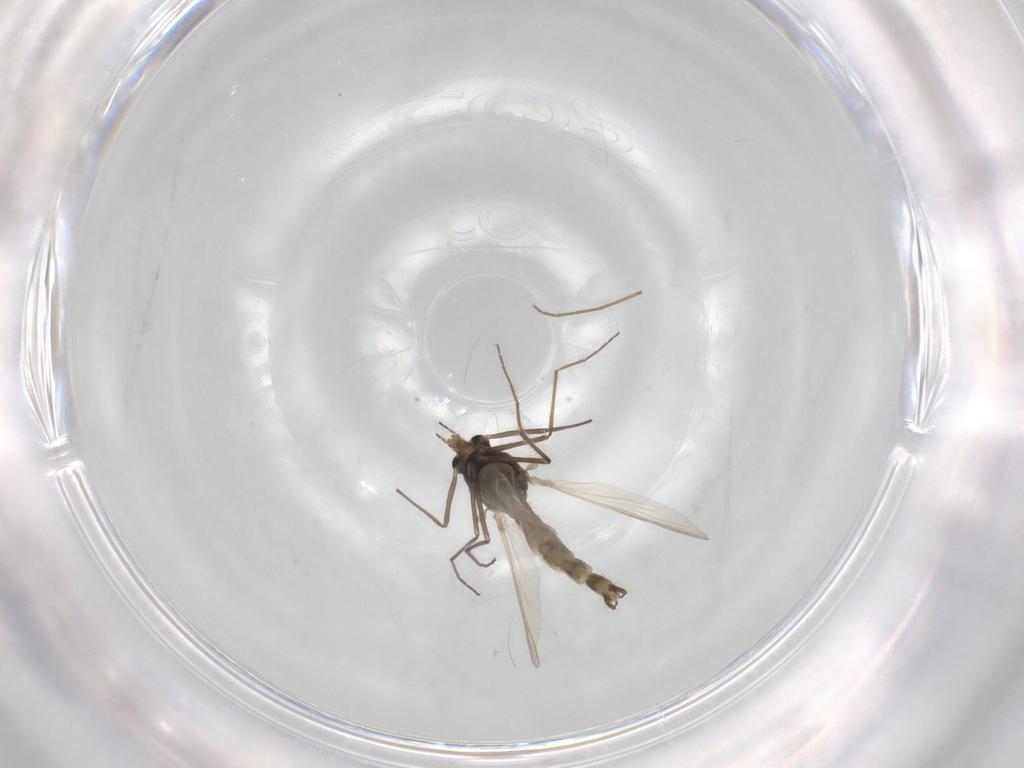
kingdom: Animalia
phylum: Arthropoda
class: Insecta
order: Diptera
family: Chironomidae
